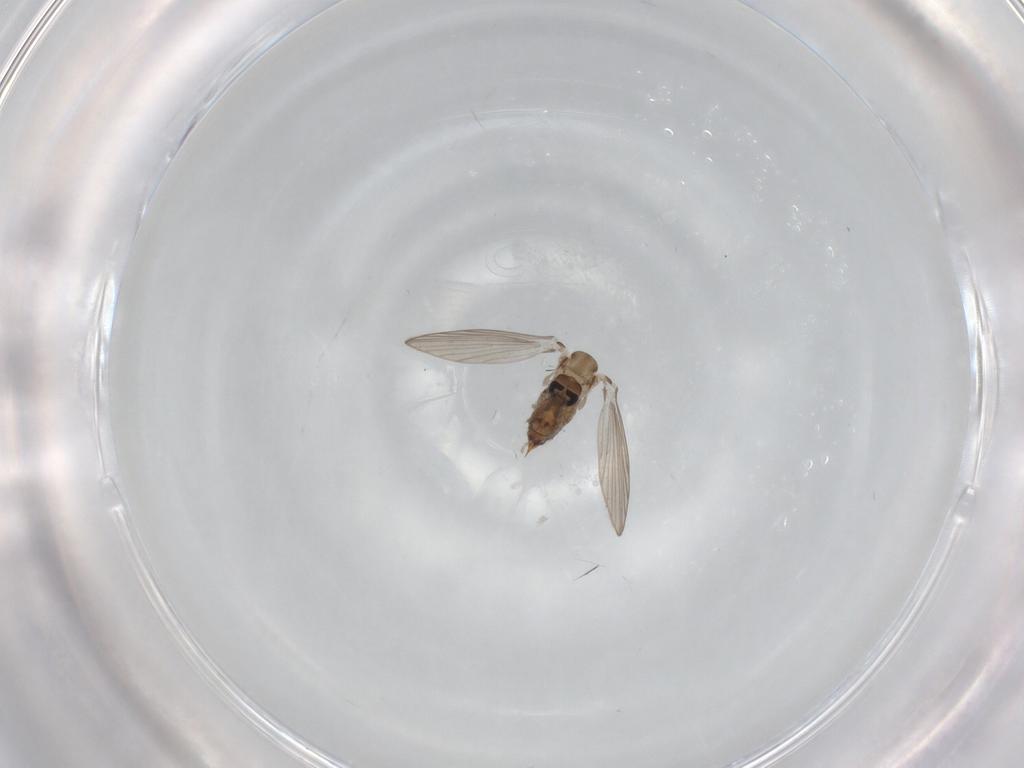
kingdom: Animalia
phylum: Arthropoda
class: Insecta
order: Diptera
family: Psychodidae
